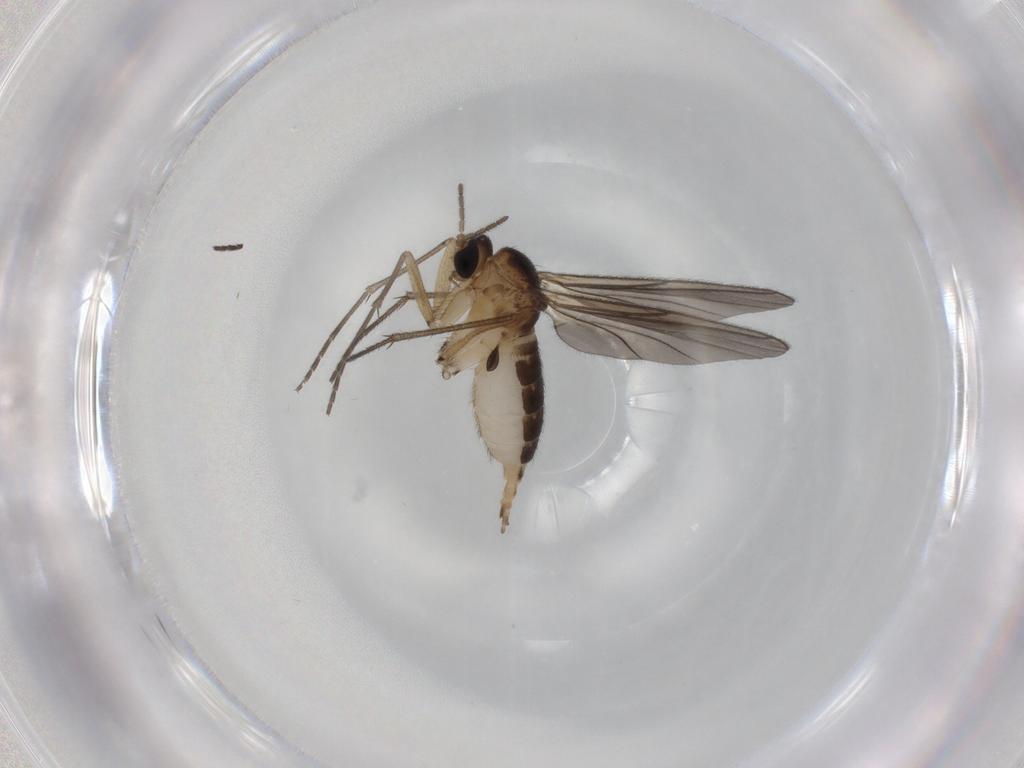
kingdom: Animalia
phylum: Arthropoda
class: Insecta
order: Diptera
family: Sciaridae
